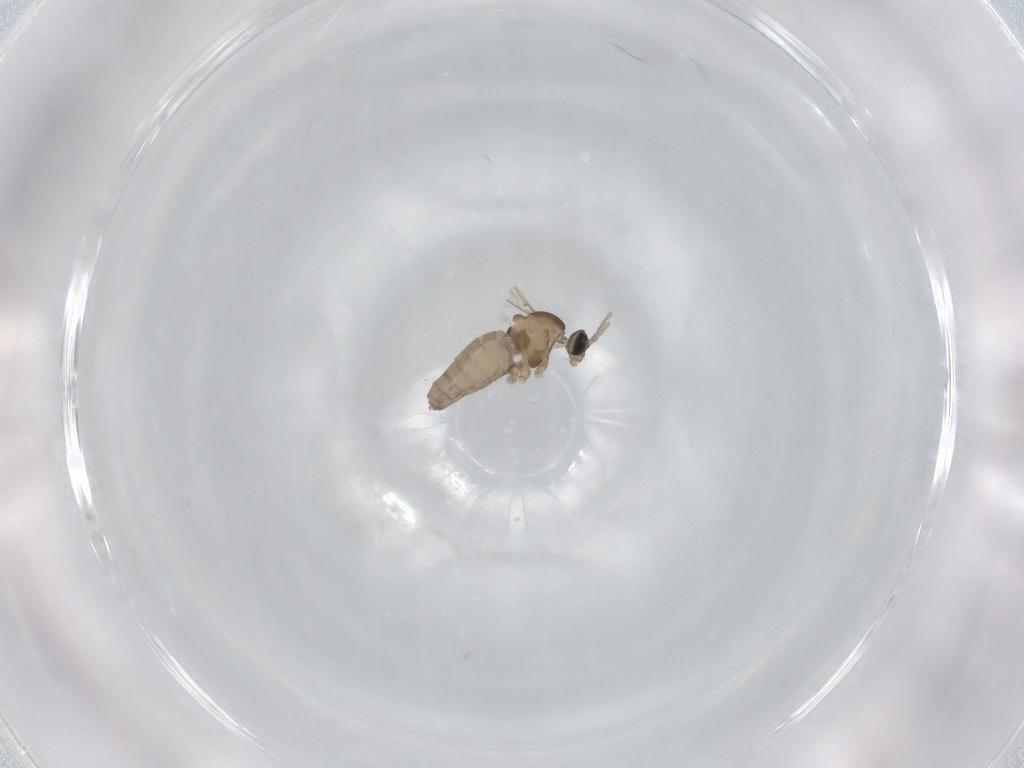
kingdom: Animalia
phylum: Arthropoda
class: Insecta
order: Diptera
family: Cecidomyiidae
